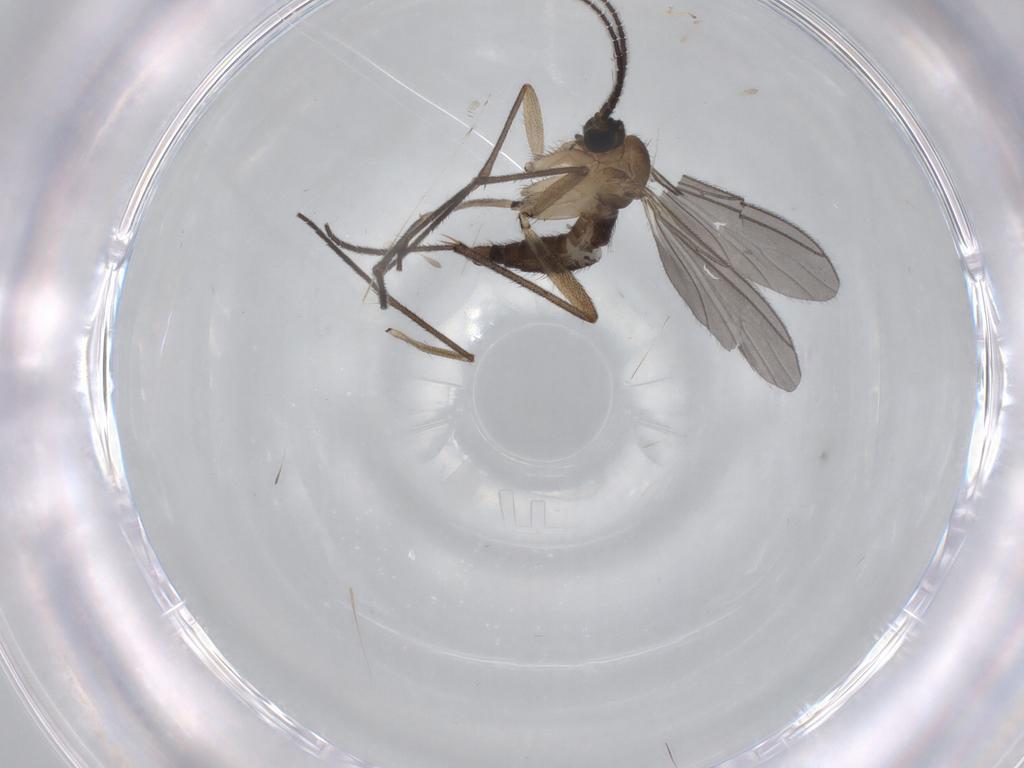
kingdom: Animalia
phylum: Arthropoda
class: Insecta
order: Diptera
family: Sciaridae
